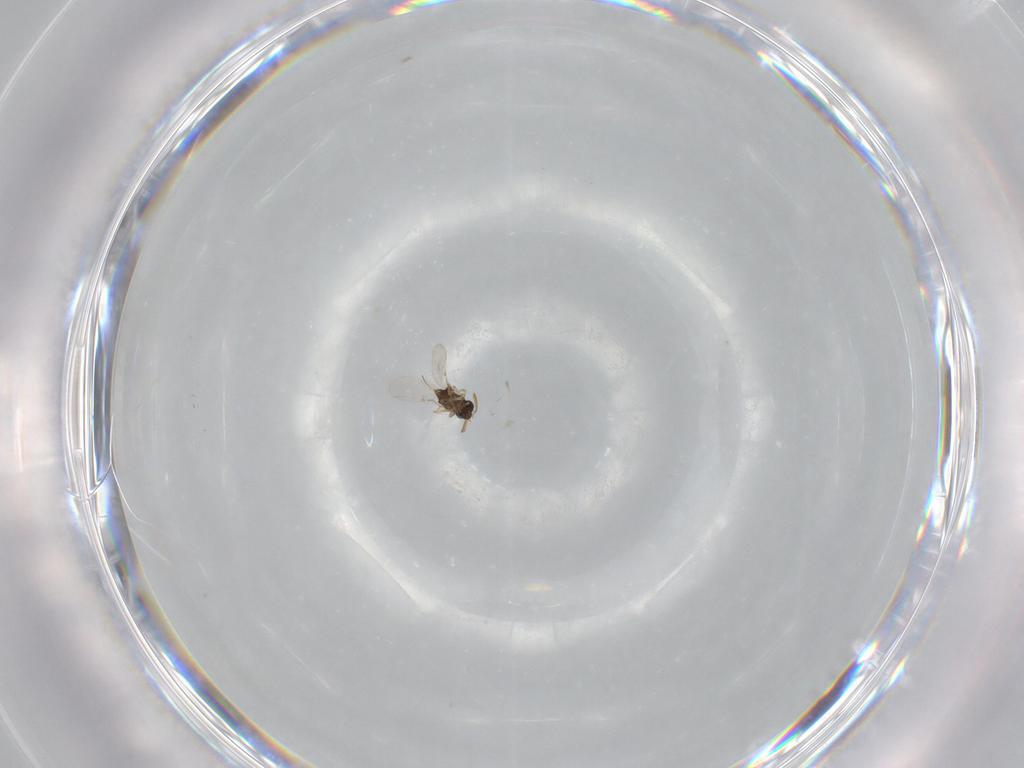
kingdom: Animalia
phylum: Arthropoda
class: Insecta
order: Hymenoptera
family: Encyrtidae
